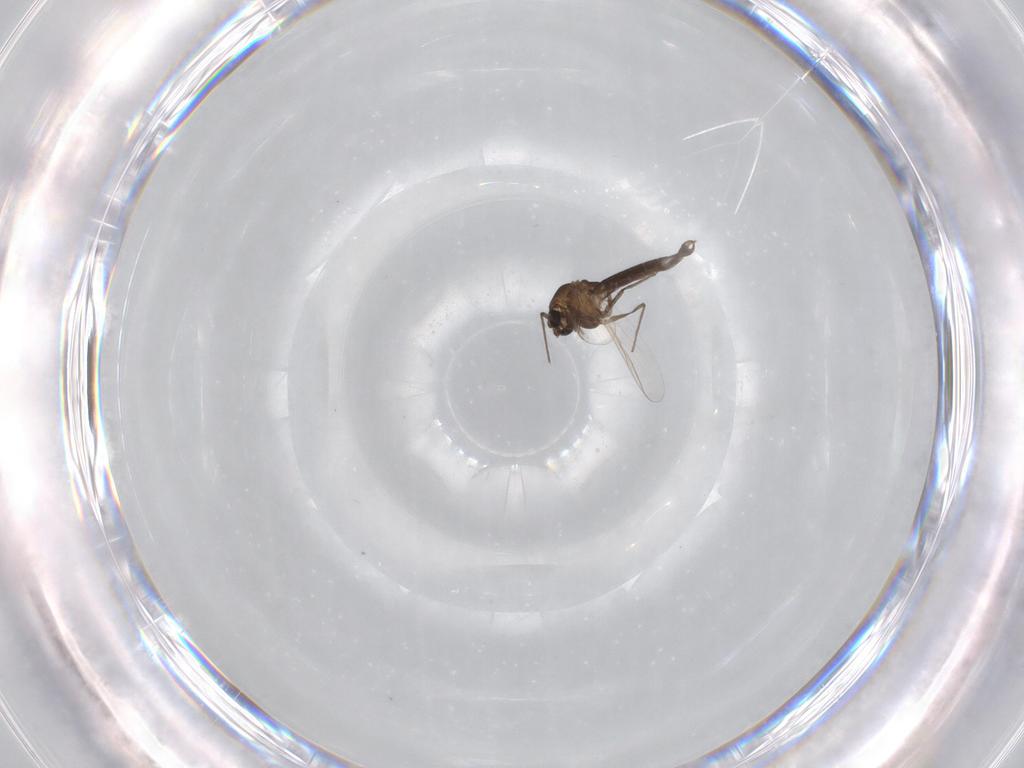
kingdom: Animalia
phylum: Arthropoda
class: Insecta
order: Diptera
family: Chironomidae
